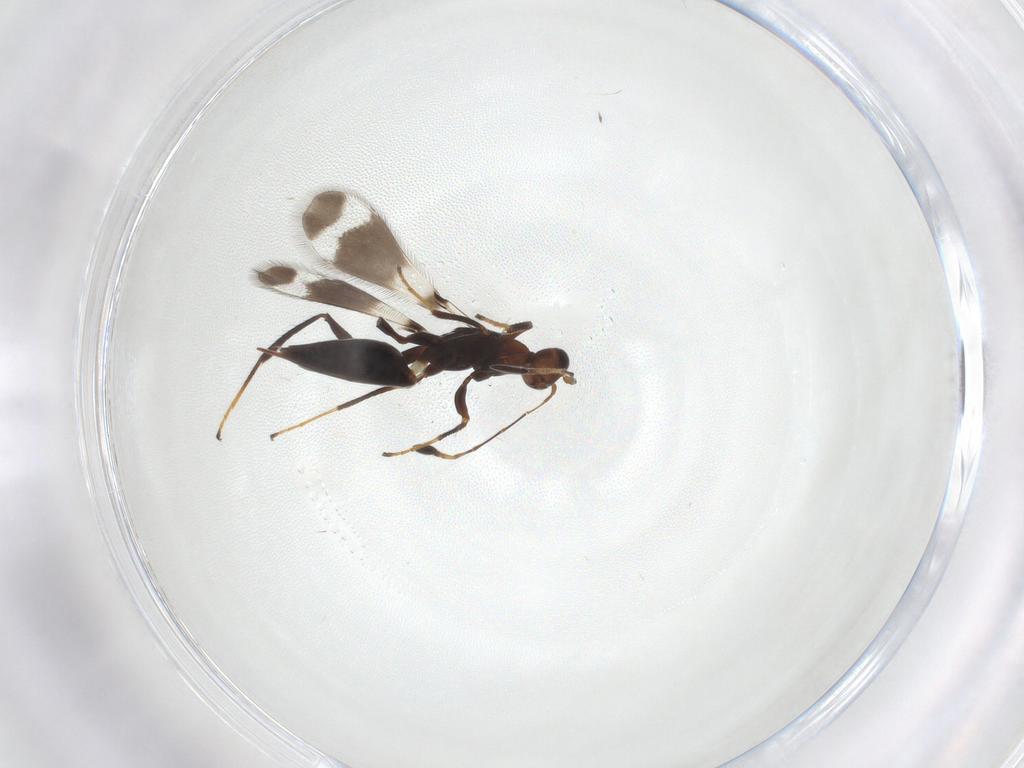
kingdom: Animalia
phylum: Arthropoda
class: Insecta
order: Hymenoptera
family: Mymaridae
